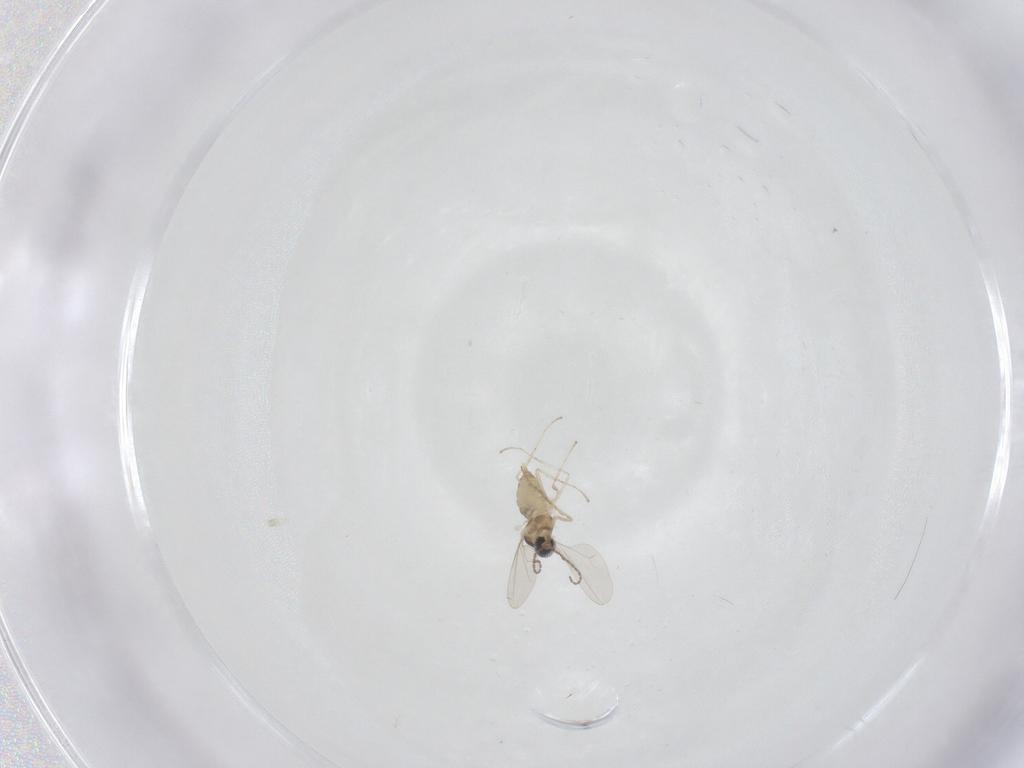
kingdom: Animalia
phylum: Arthropoda
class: Insecta
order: Diptera
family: Cecidomyiidae
